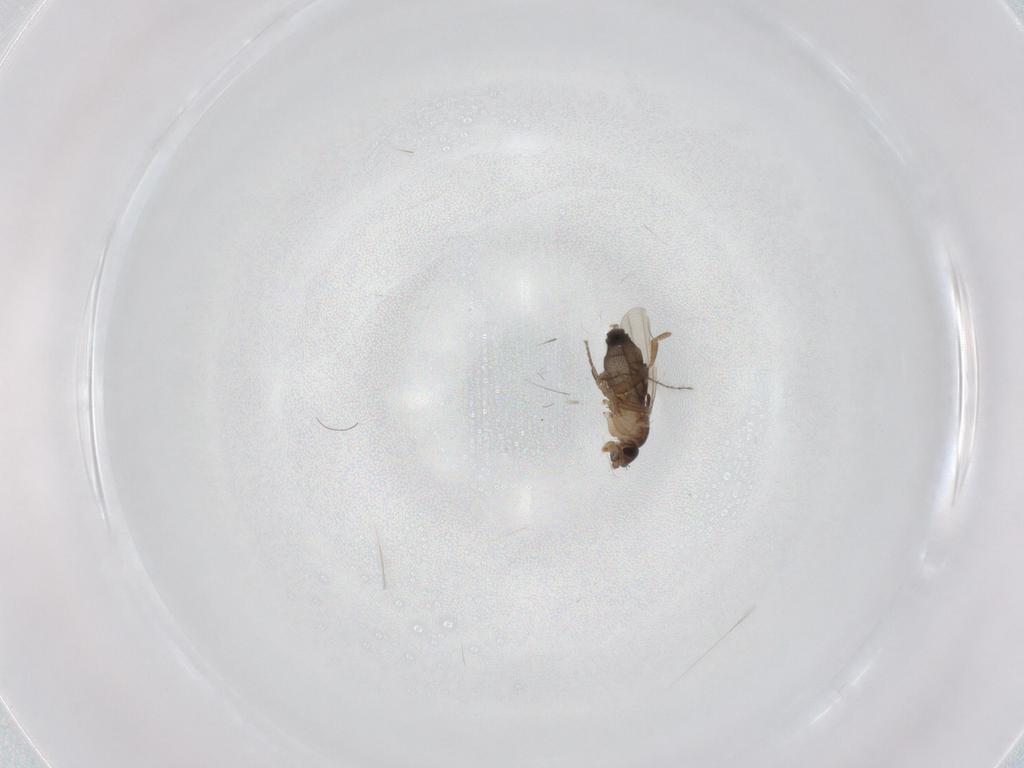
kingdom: Animalia
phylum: Arthropoda
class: Insecta
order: Diptera
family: Phoridae
